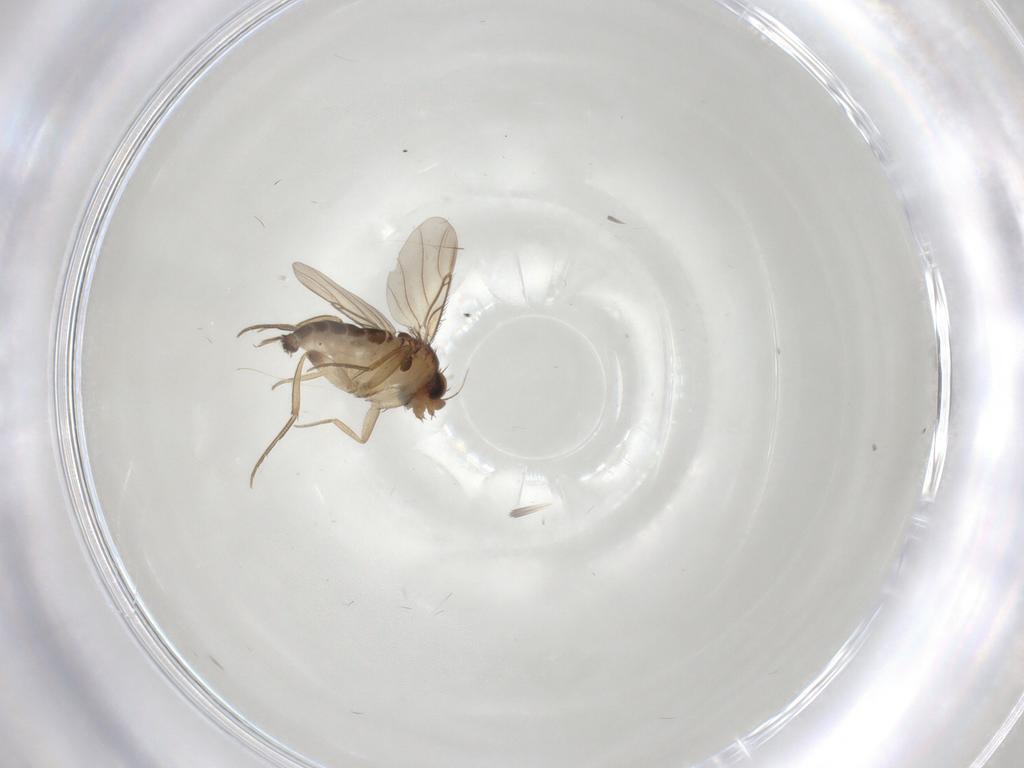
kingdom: Animalia
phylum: Arthropoda
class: Insecta
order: Diptera
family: Phoridae
